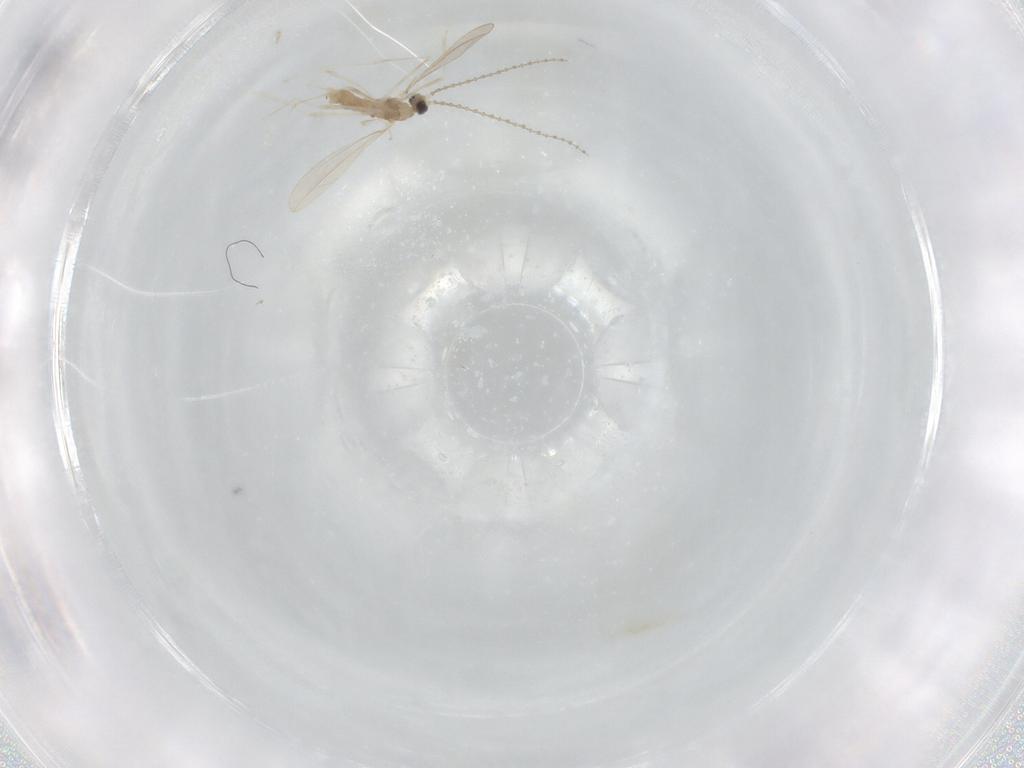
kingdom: Animalia
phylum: Arthropoda
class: Insecta
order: Diptera
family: Cecidomyiidae
